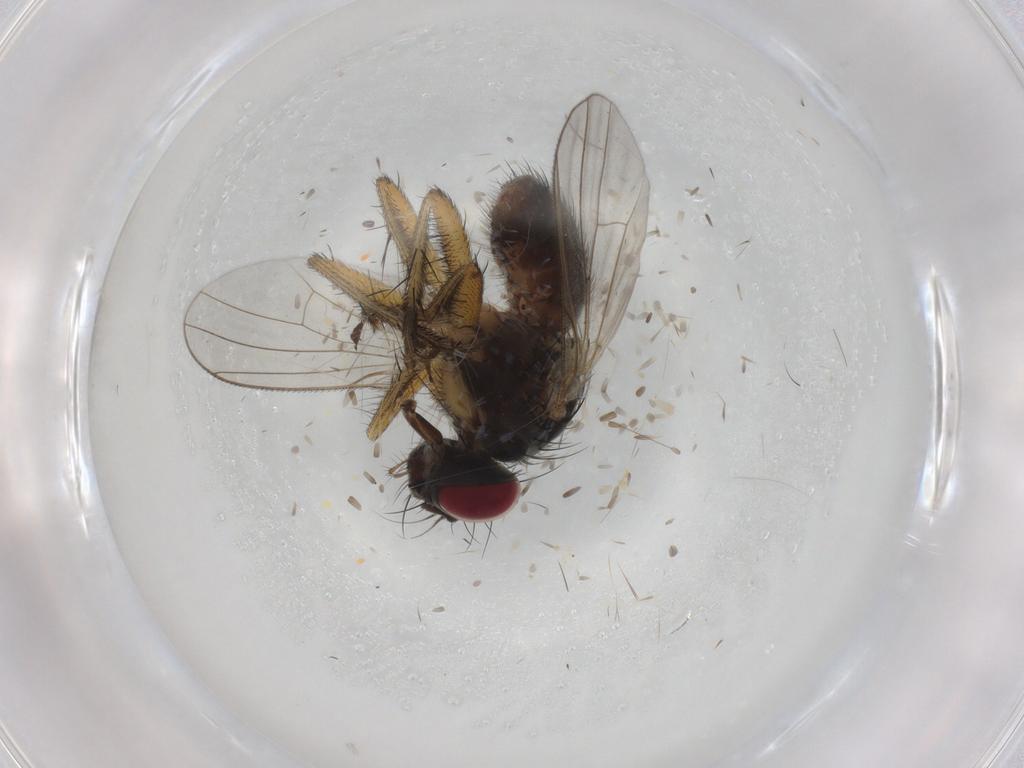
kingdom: Animalia
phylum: Arthropoda
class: Insecta
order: Diptera
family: Muscidae
